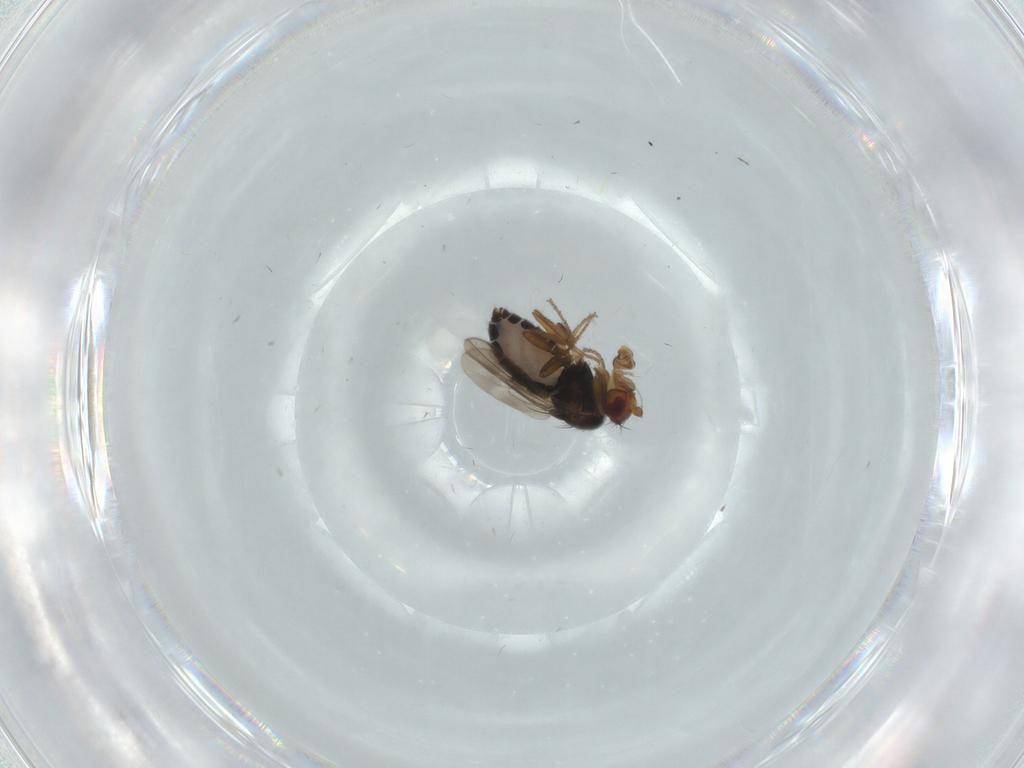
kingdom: Animalia
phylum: Arthropoda
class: Insecta
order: Diptera
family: Sphaeroceridae
